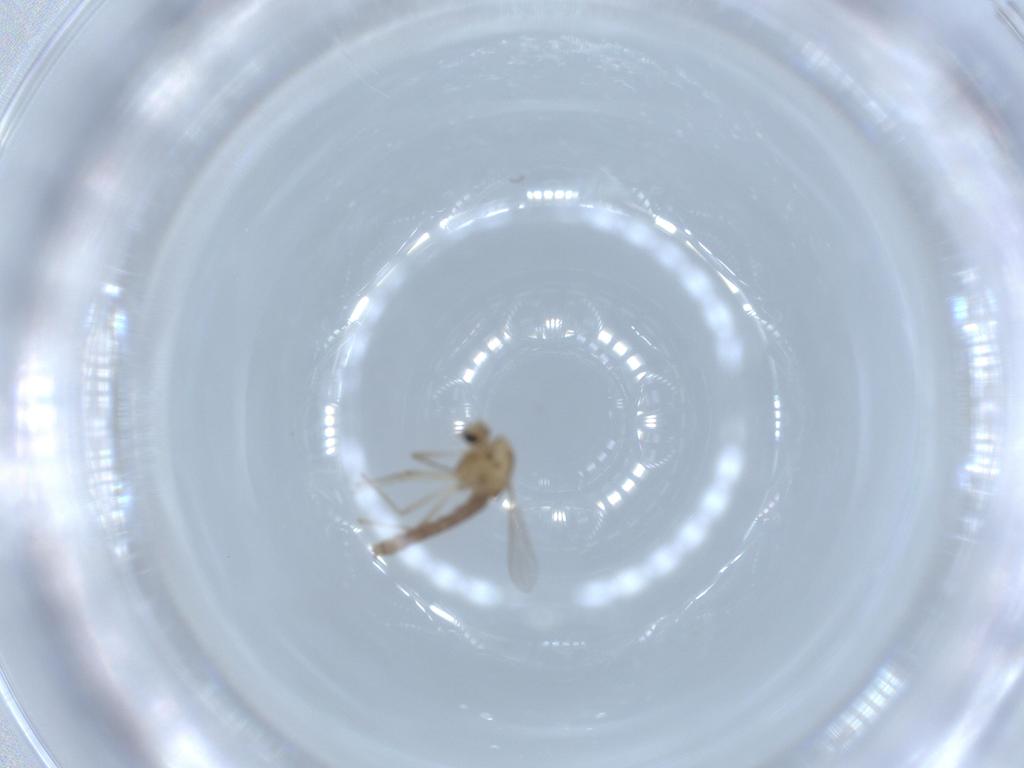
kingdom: Animalia
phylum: Arthropoda
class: Insecta
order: Diptera
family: Chironomidae
